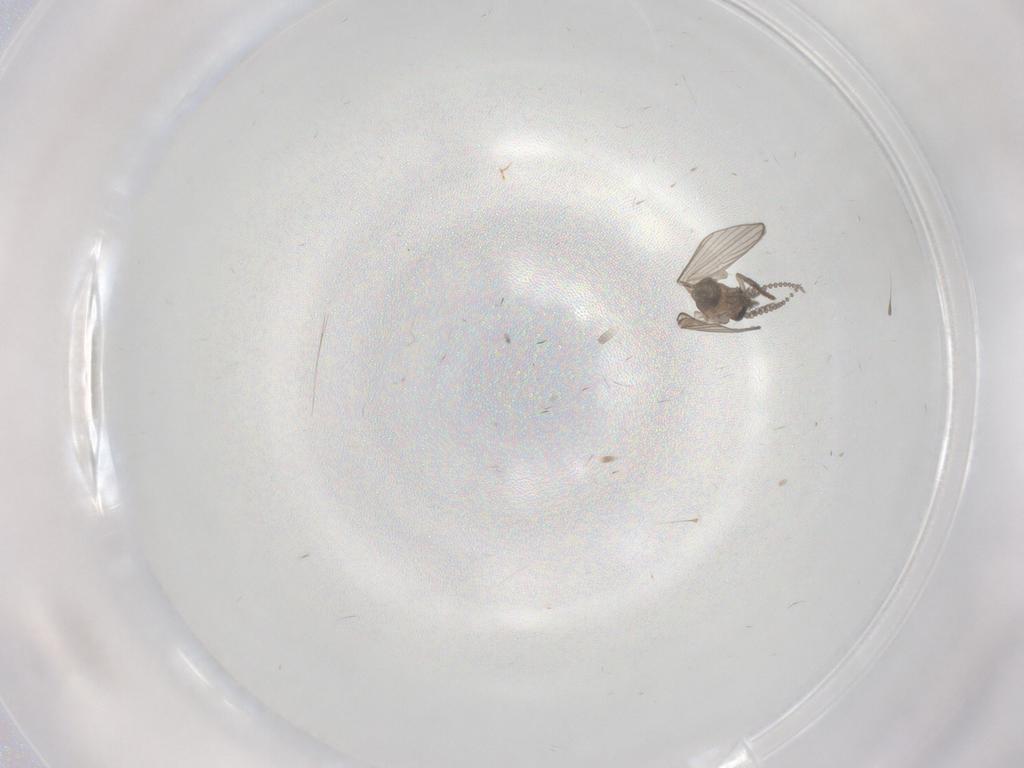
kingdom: Animalia
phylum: Arthropoda
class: Insecta
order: Diptera
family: Psychodidae
